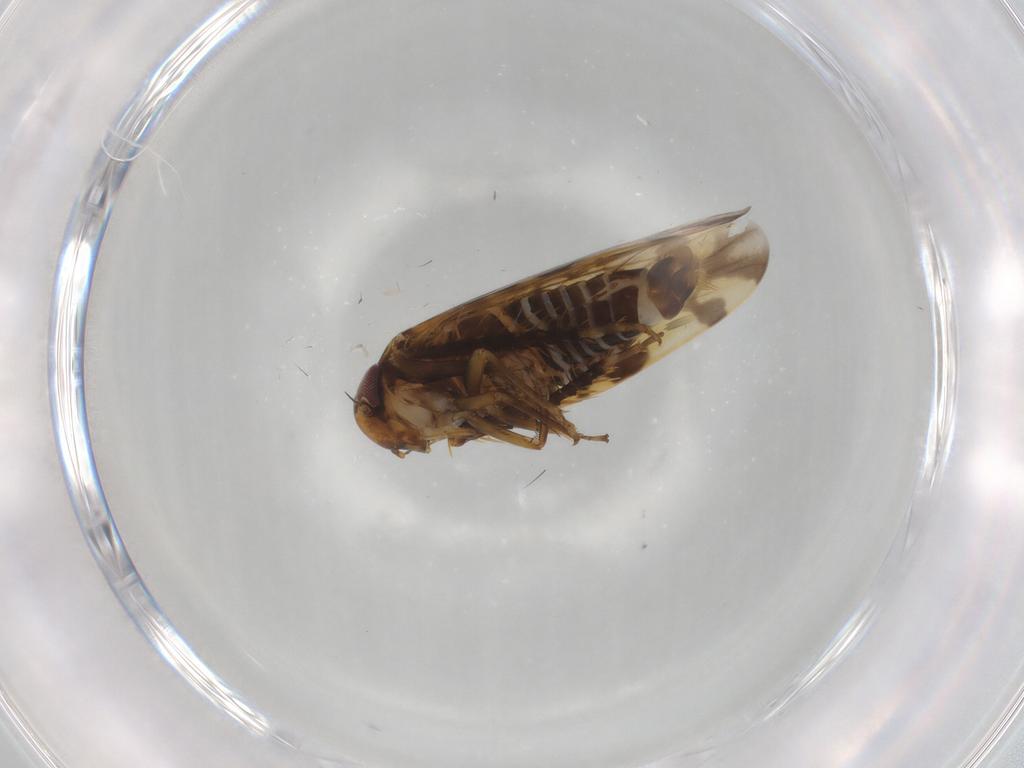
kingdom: Animalia
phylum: Arthropoda
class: Insecta
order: Hemiptera
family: Cicadellidae
